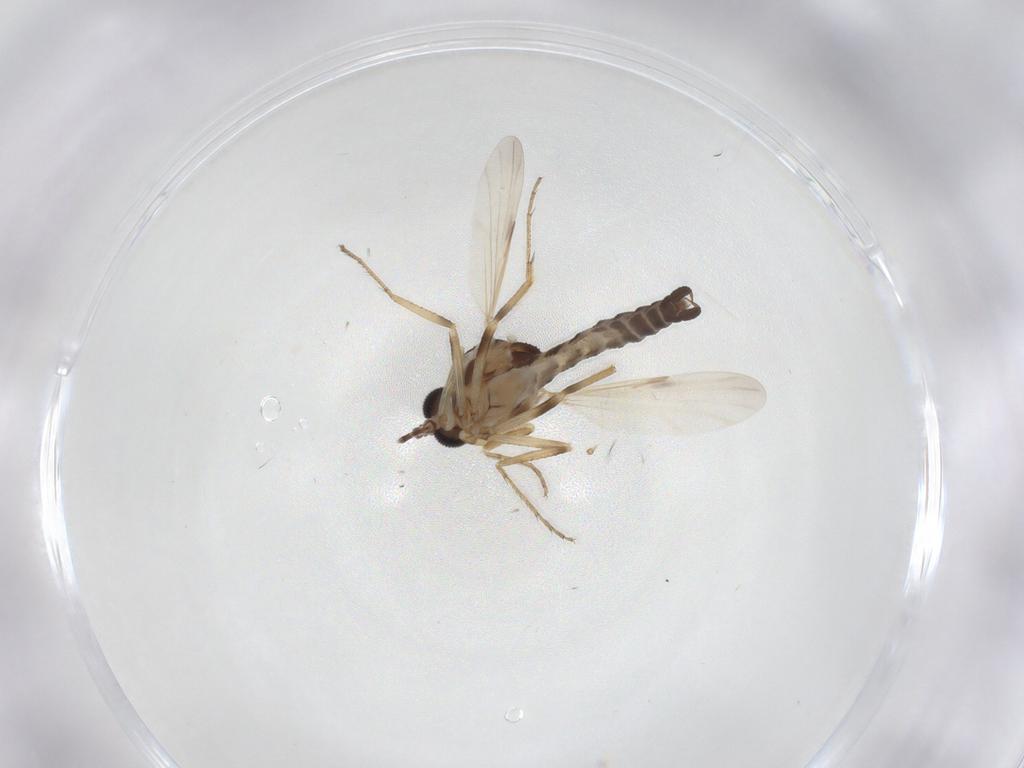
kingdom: Animalia
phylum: Arthropoda
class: Insecta
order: Diptera
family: Ceratopogonidae
